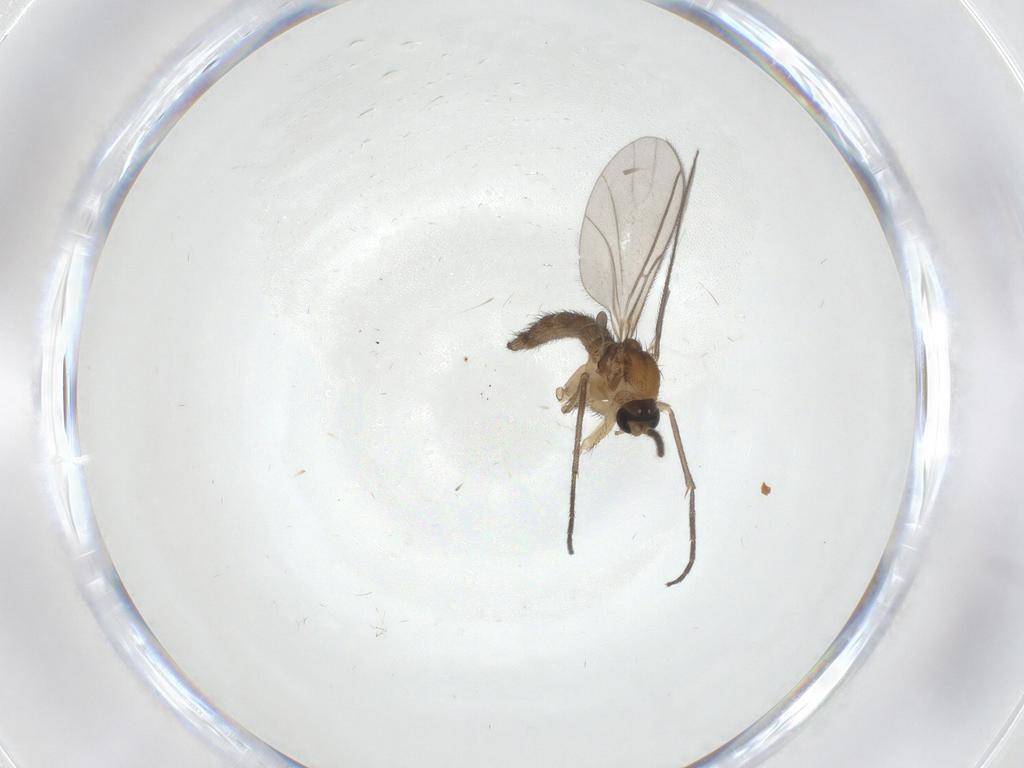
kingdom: Animalia
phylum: Arthropoda
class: Insecta
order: Diptera
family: Sciaridae
